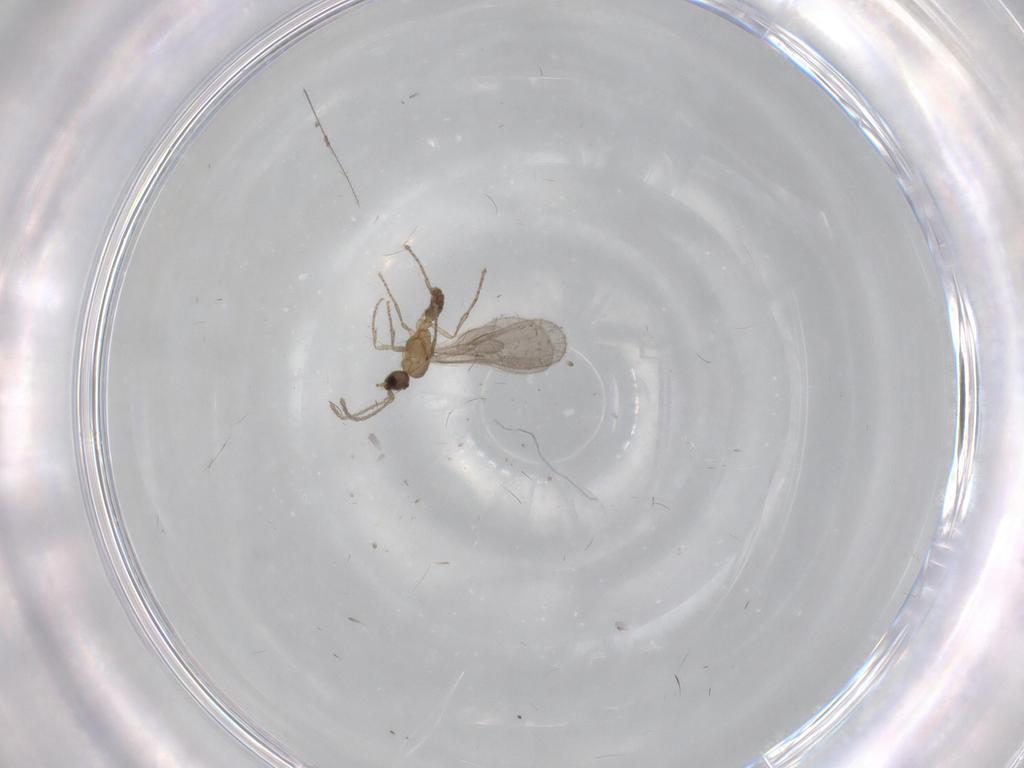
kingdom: Animalia
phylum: Arthropoda
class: Insecta
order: Hymenoptera
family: Formicidae
